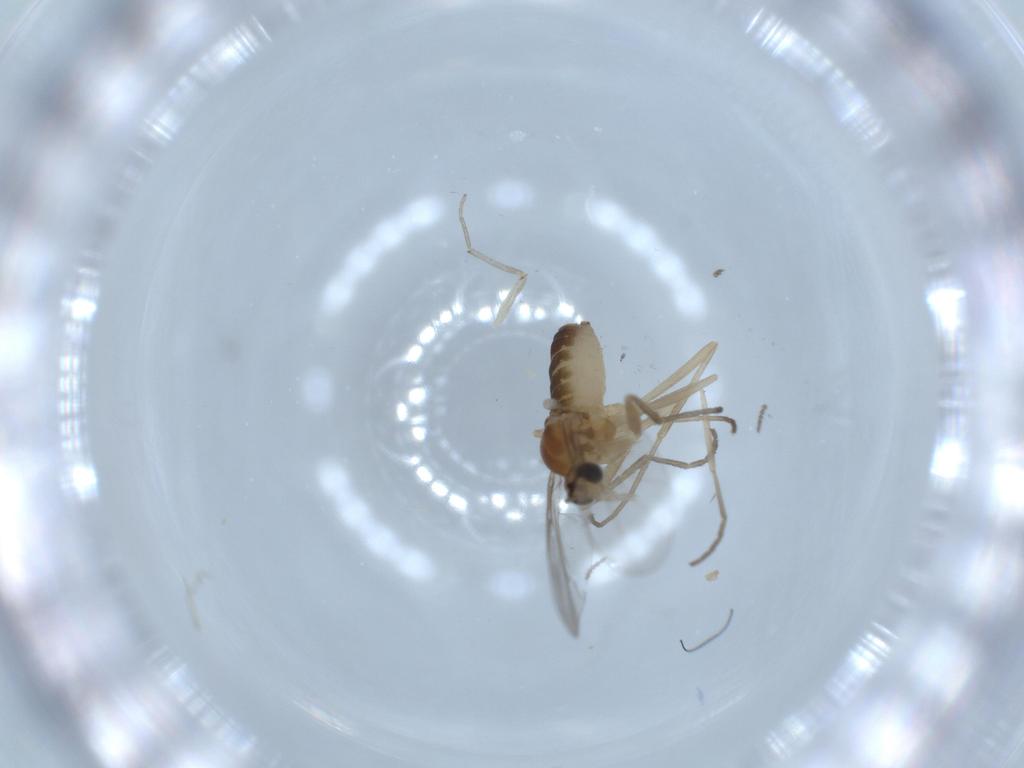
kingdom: Animalia
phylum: Arthropoda
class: Insecta
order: Diptera
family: Cecidomyiidae
